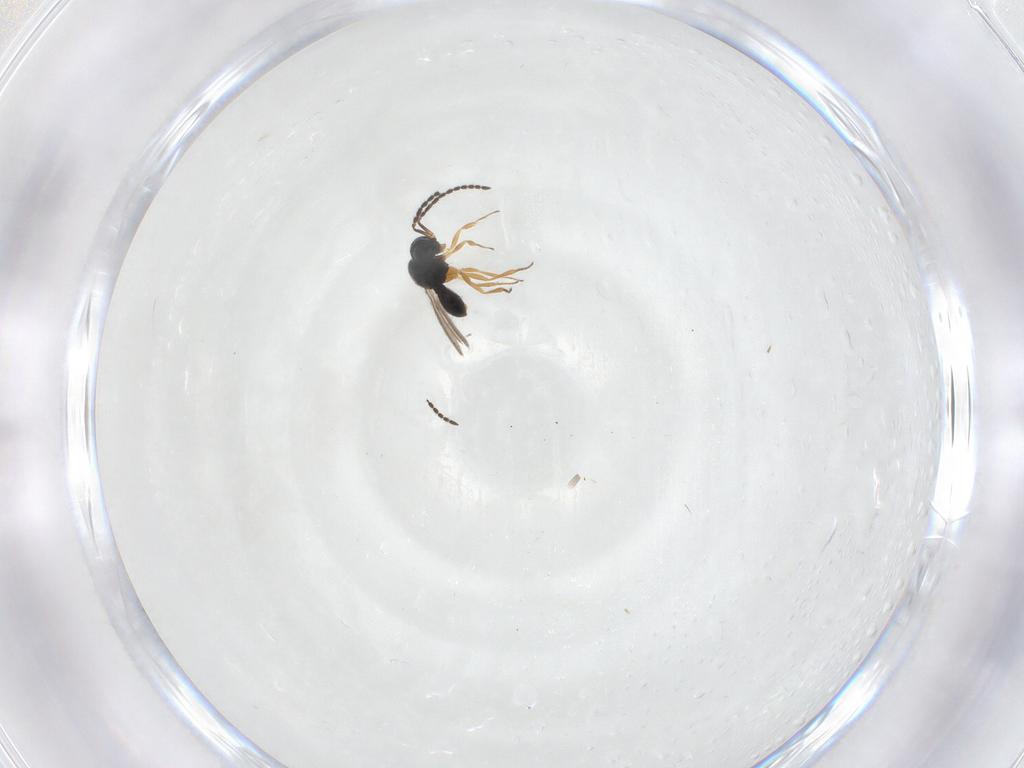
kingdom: Animalia
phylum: Arthropoda
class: Insecta
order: Hymenoptera
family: Scelionidae
